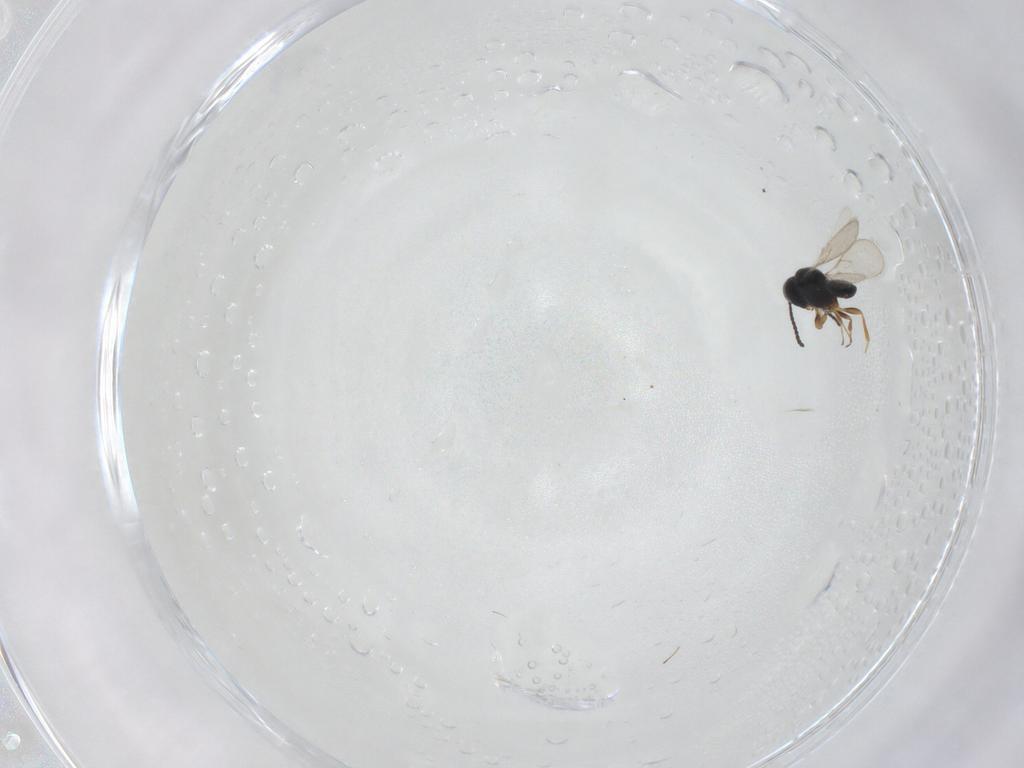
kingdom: Animalia
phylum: Arthropoda
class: Insecta
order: Hymenoptera
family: Scelionidae
